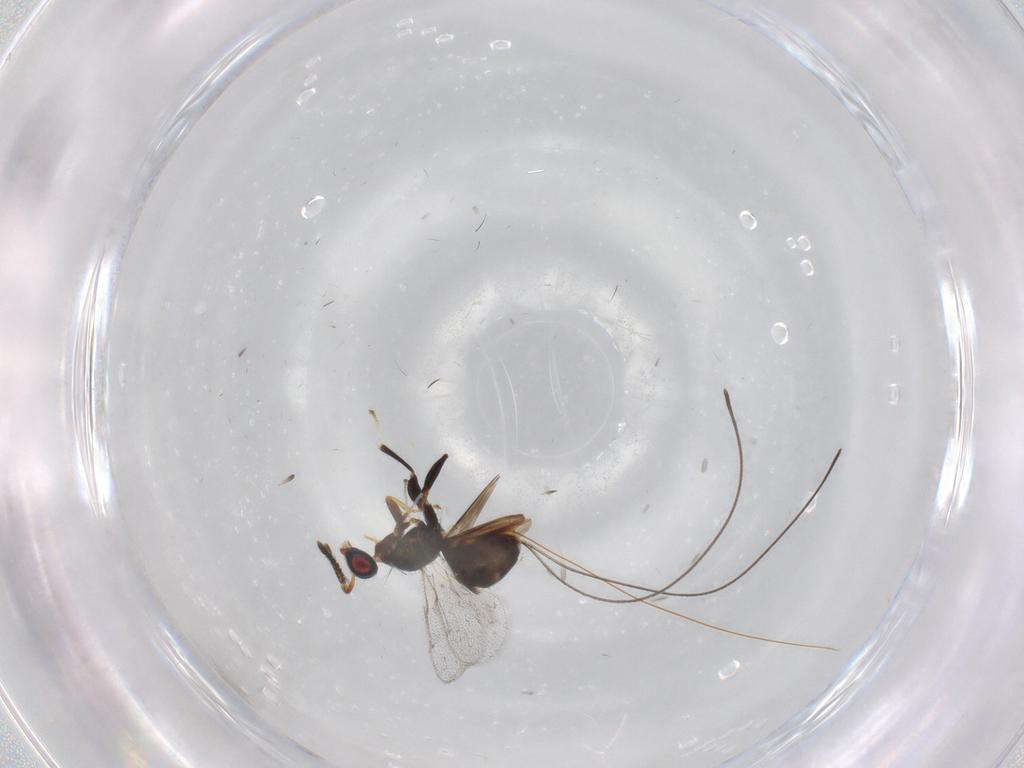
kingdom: Animalia
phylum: Arthropoda
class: Insecta
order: Hymenoptera
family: Torymidae
